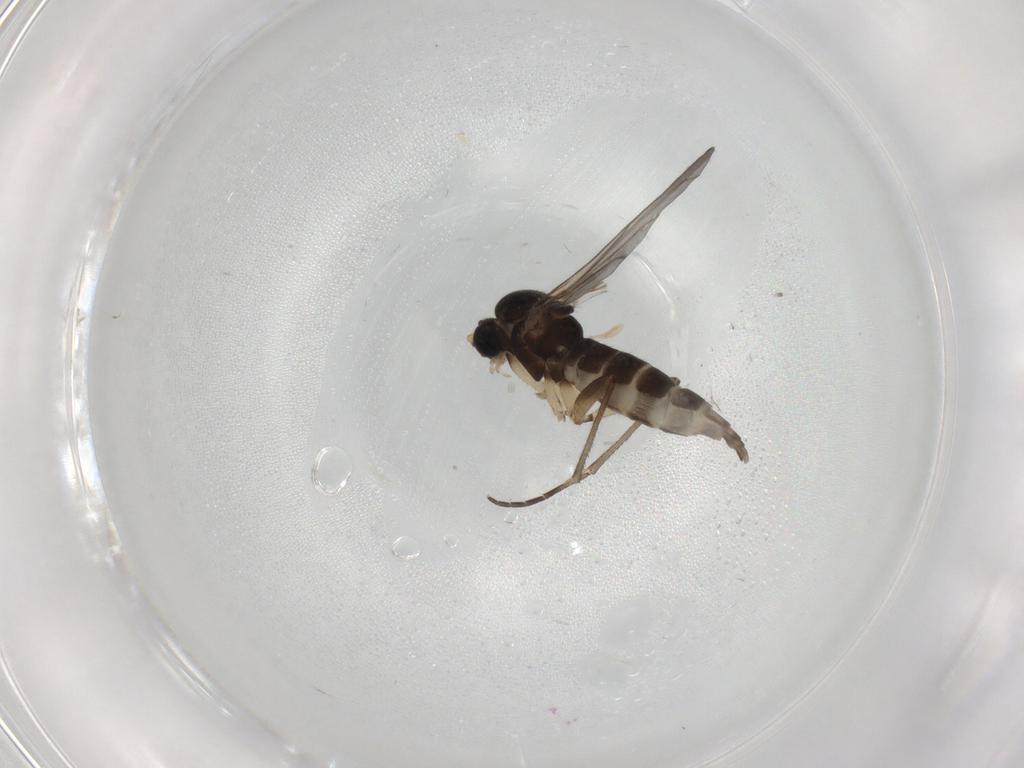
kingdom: Animalia
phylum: Arthropoda
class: Insecta
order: Diptera
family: Sciaridae
